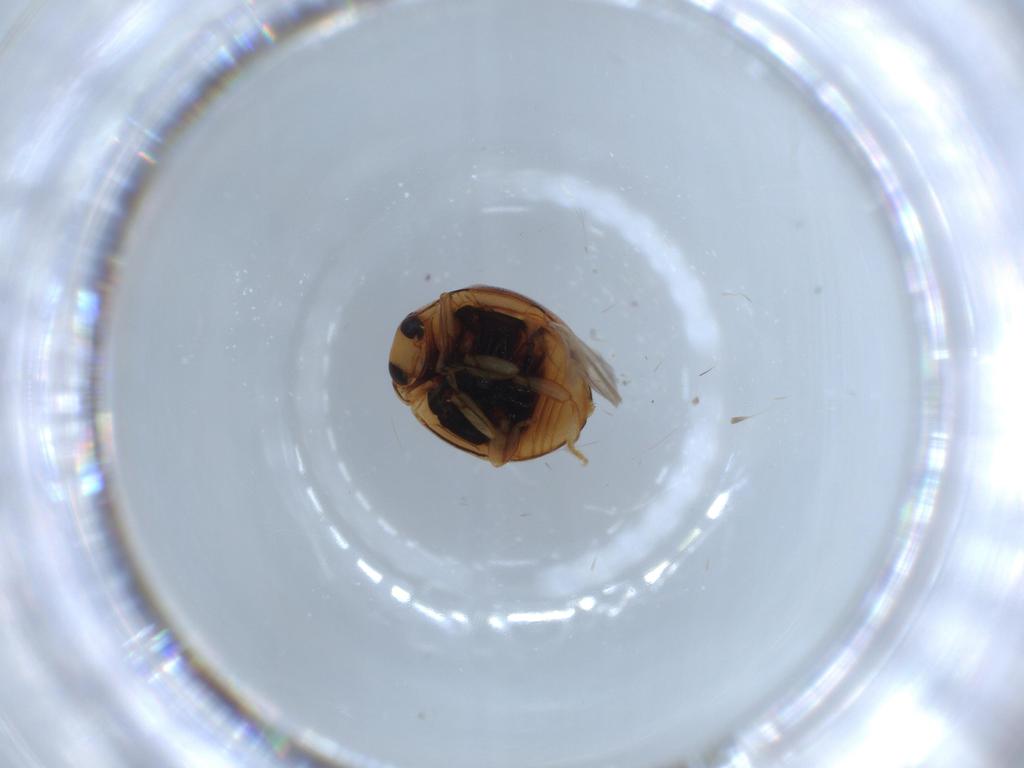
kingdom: Animalia
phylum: Arthropoda
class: Insecta
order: Coleoptera
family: Coccinellidae
